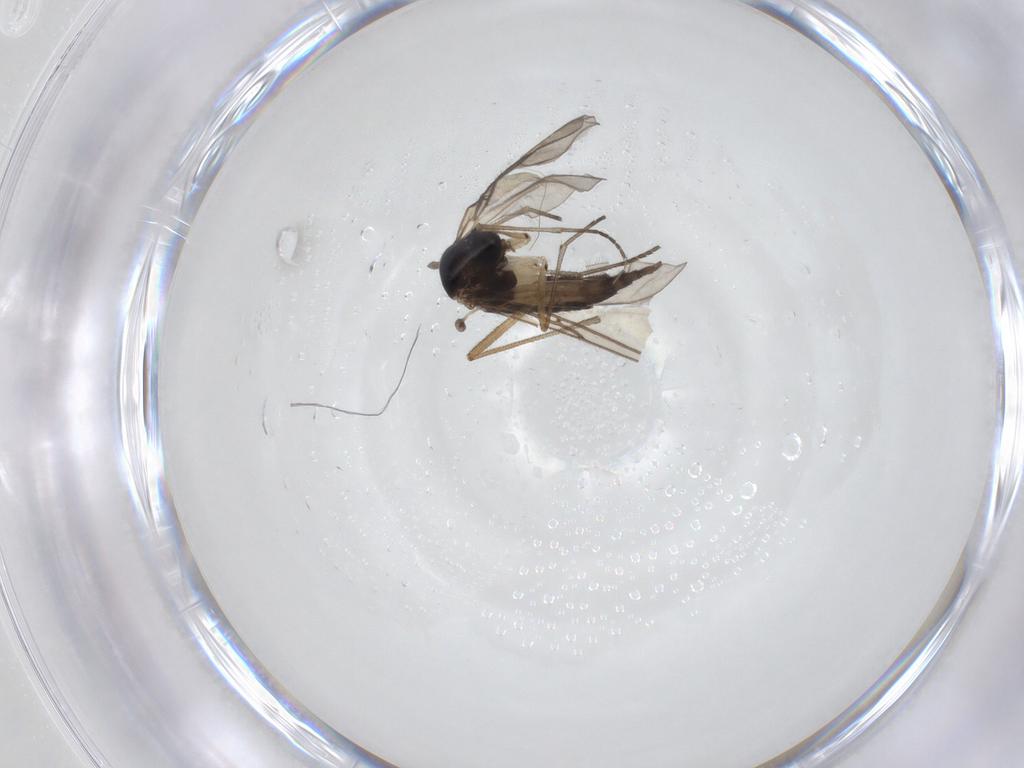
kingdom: Animalia
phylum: Arthropoda
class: Insecta
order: Diptera
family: Sciaridae
